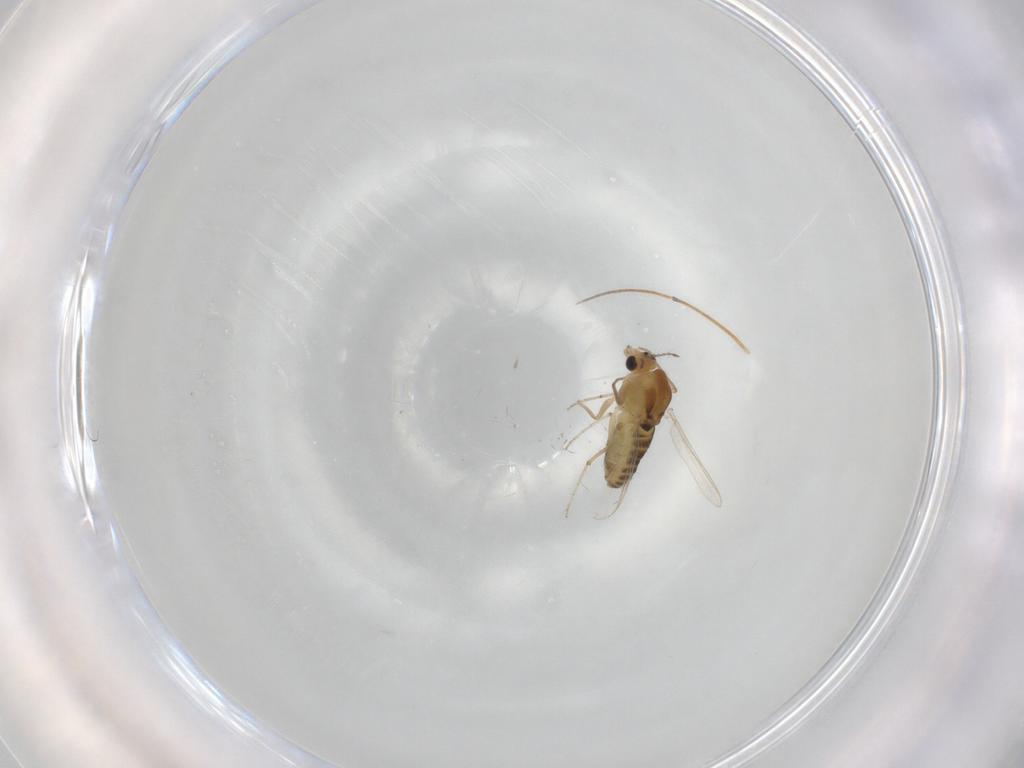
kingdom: Animalia
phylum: Arthropoda
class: Insecta
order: Diptera
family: Chironomidae
